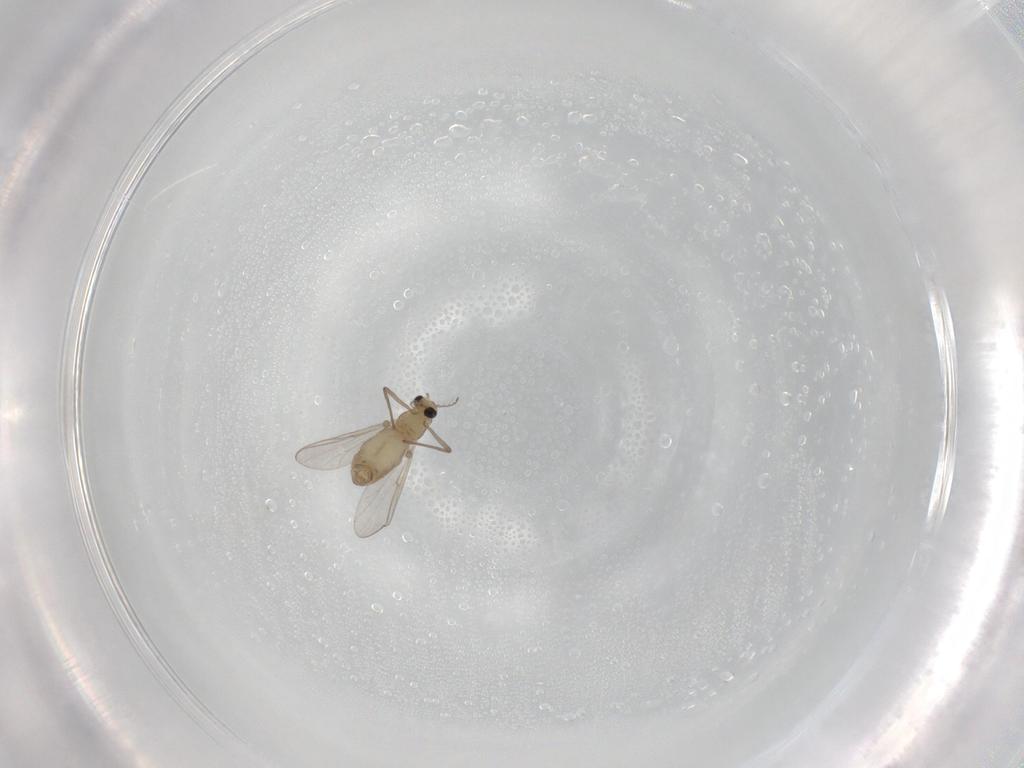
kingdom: Animalia
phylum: Arthropoda
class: Insecta
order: Diptera
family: Chironomidae
